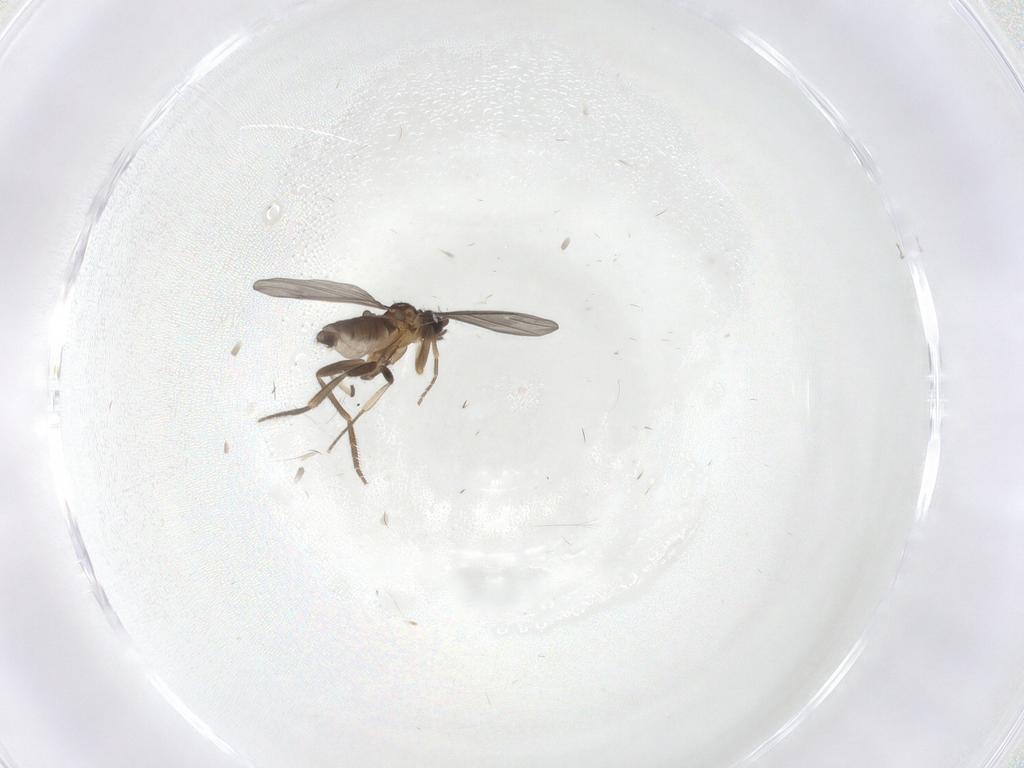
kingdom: Animalia
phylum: Arthropoda
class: Insecta
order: Diptera
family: Phoridae
